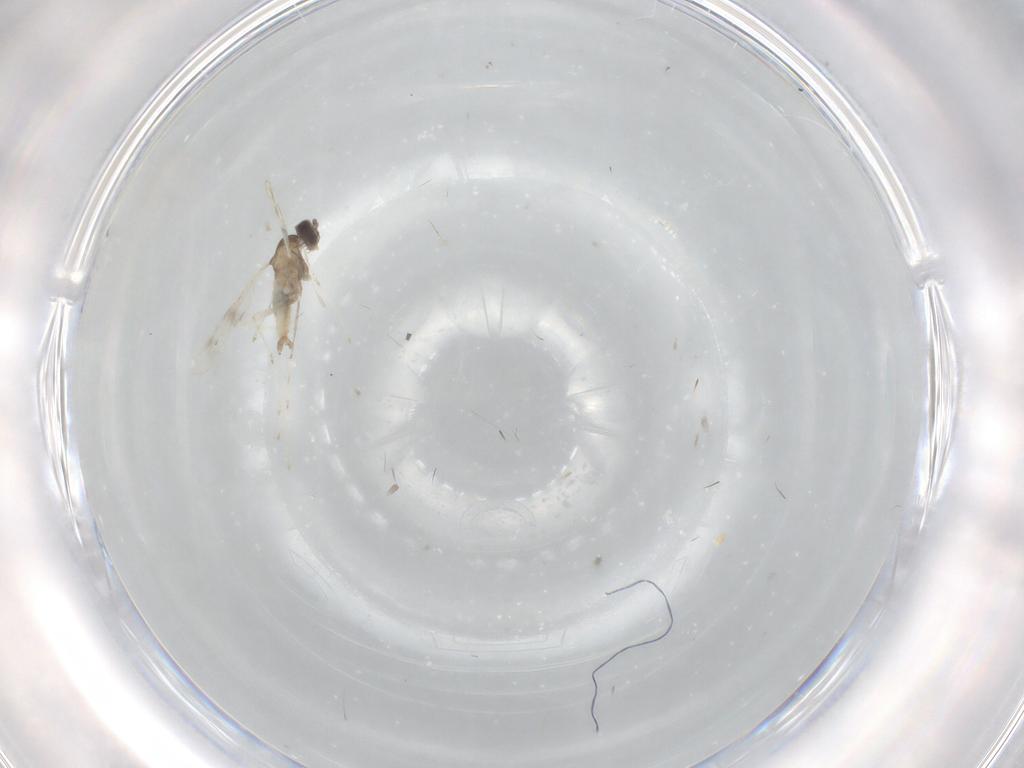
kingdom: Animalia
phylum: Arthropoda
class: Insecta
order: Diptera
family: Cecidomyiidae
